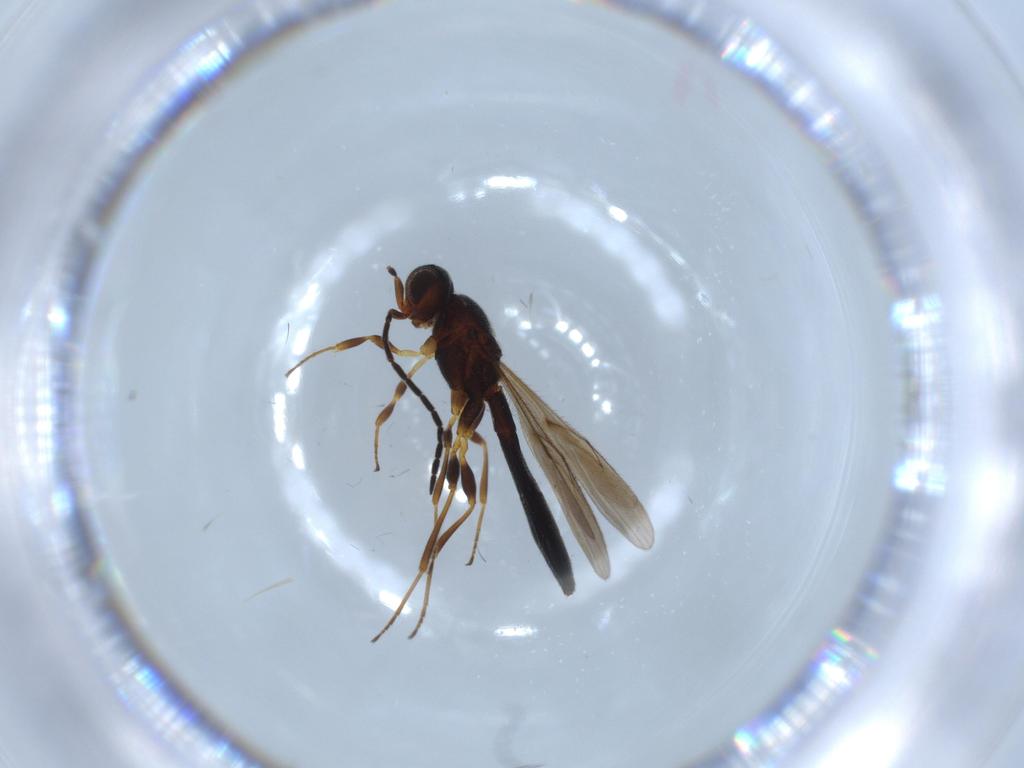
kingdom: Animalia
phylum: Arthropoda
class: Insecta
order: Hymenoptera
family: Scelionidae
